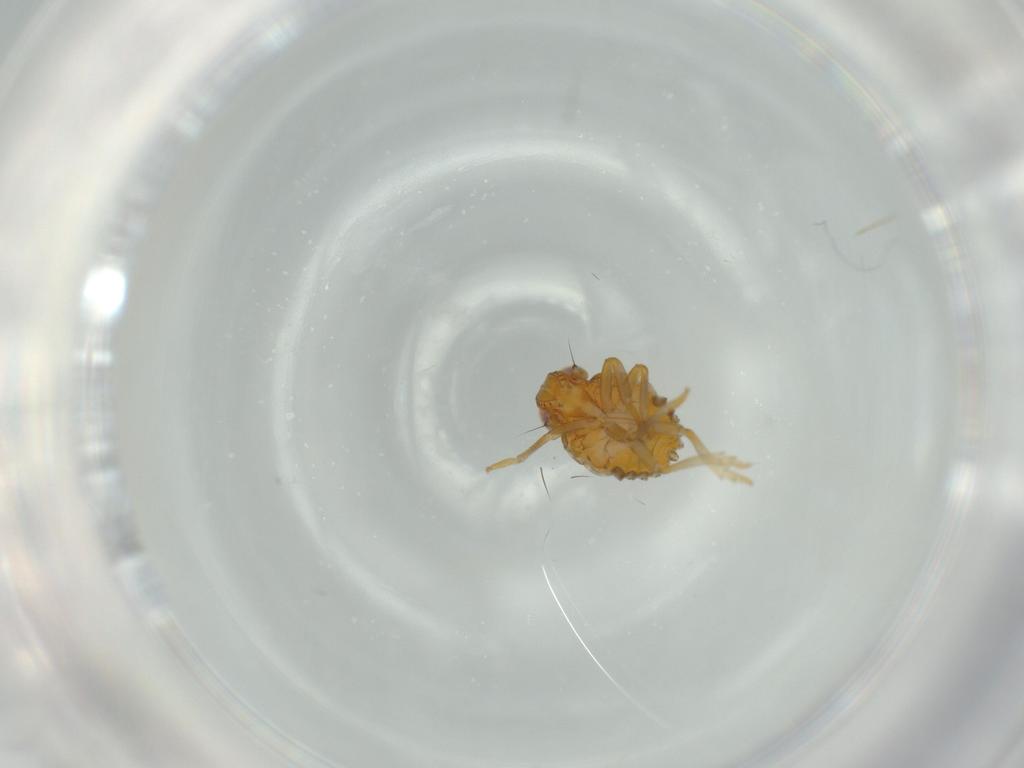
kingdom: Animalia
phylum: Arthropoda
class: Insecta
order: Hemiptera
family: Issidae
